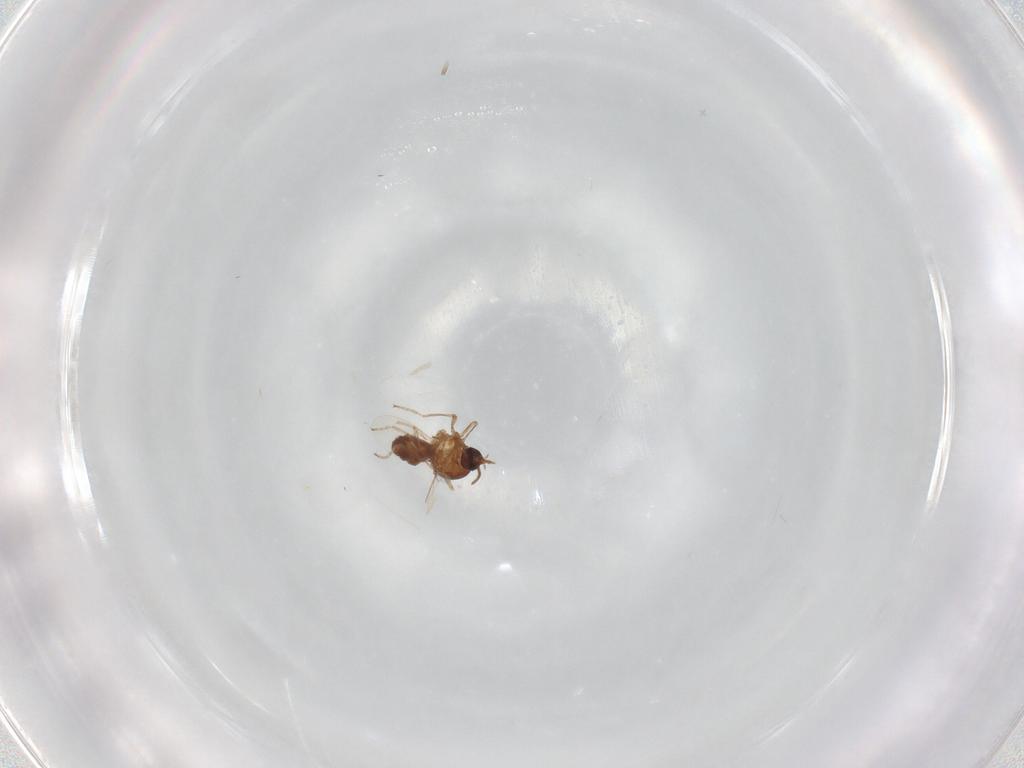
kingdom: Animalia
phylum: Arthropoda
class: Insecta
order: Diptera
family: Ceratopogonidae
